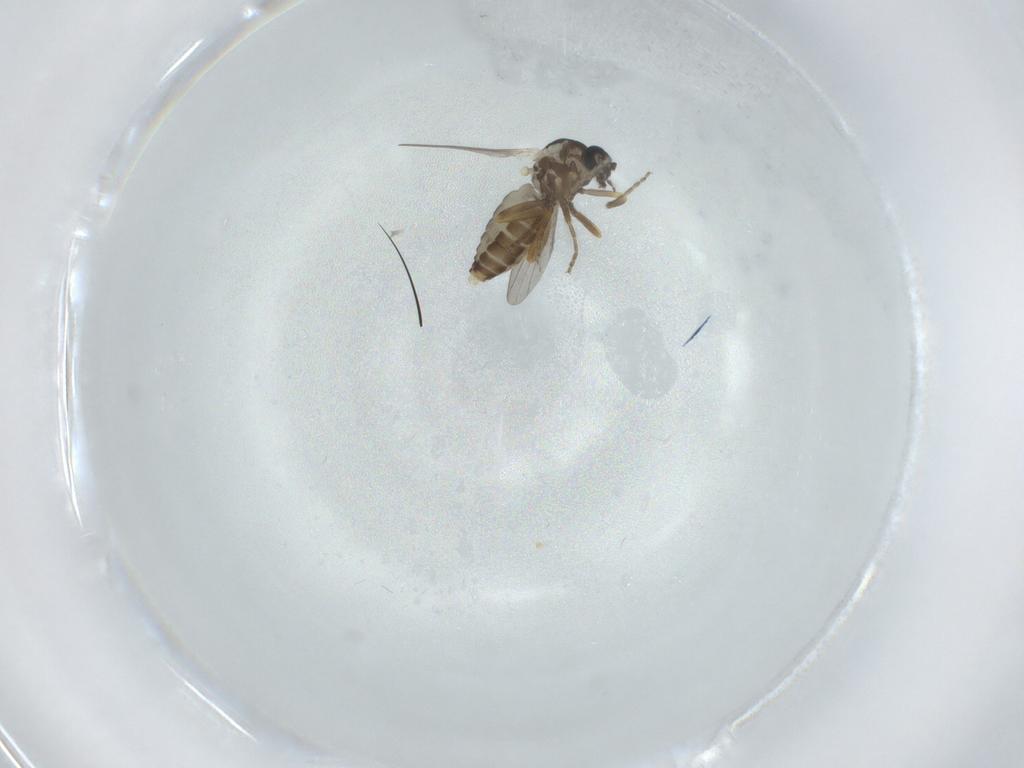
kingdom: Animalia
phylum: Arthropoda
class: Insecta
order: Diptera
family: Ceratopogonidae
